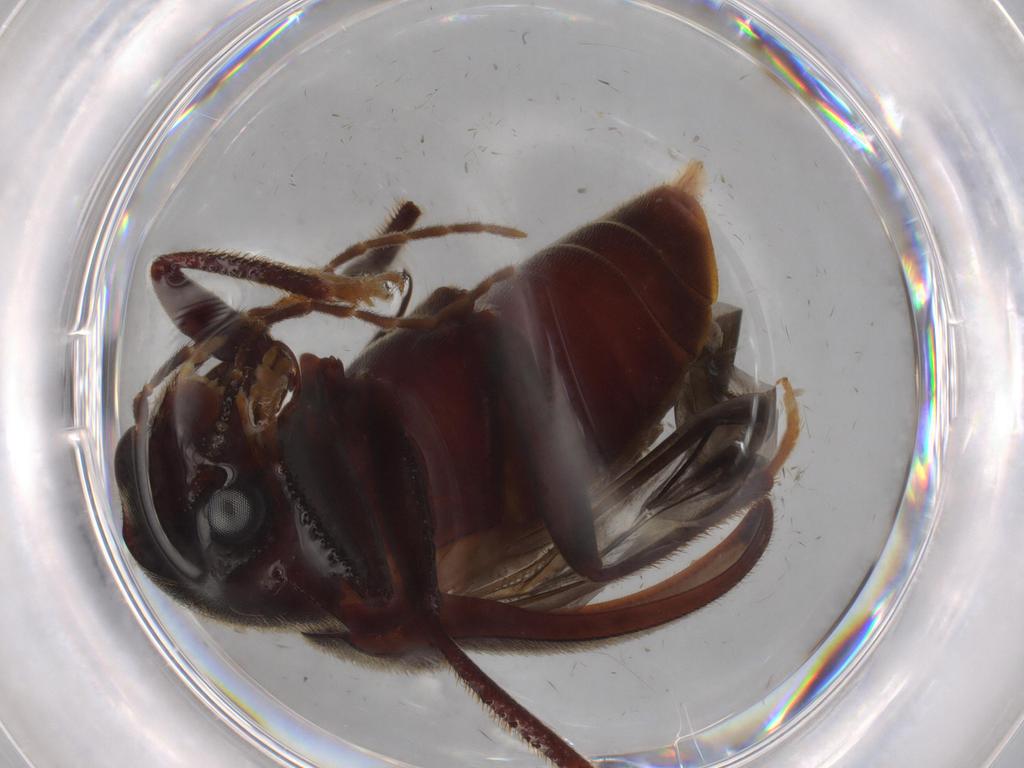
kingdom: Animalia
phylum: Arthropoda
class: Insecta
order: Coleoptera
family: Ptilodactylidae
